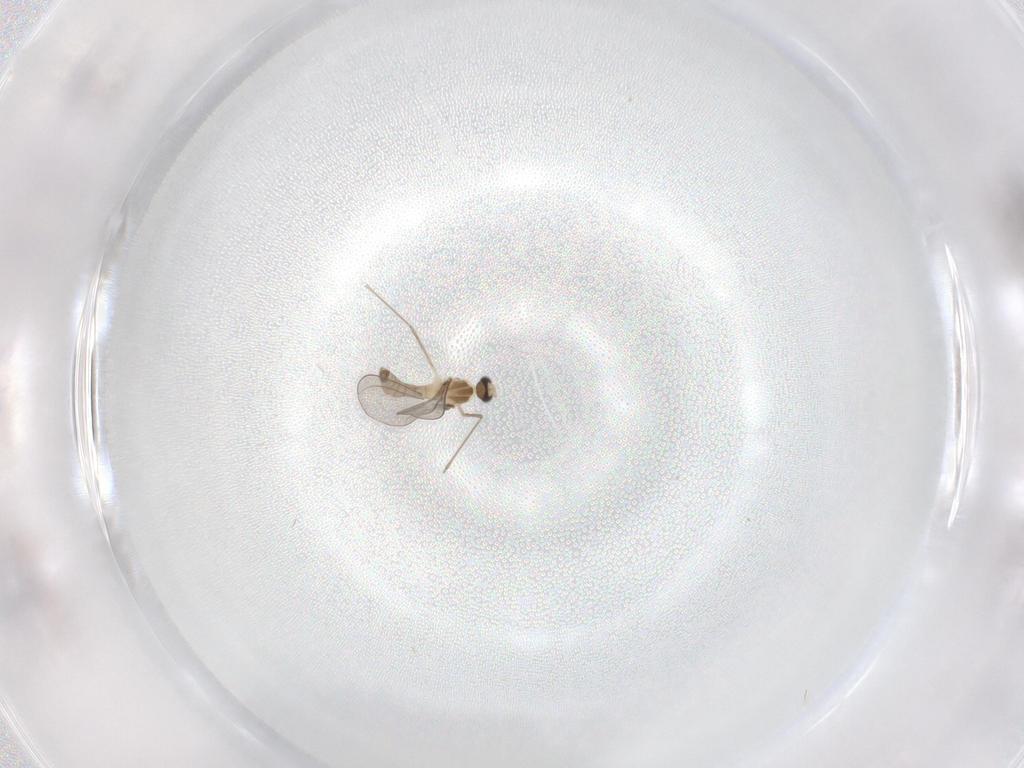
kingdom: Animalia
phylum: Arthropoda
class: Insecta
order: Diptera
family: Cecidomyiidae
